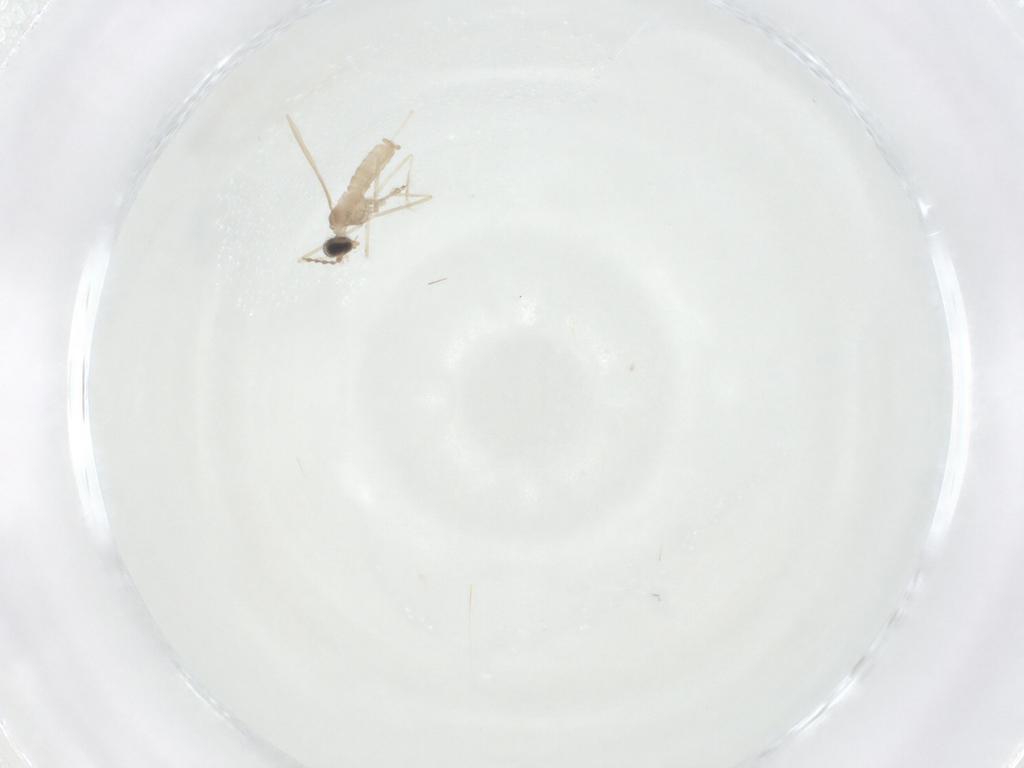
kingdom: Animalia
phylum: Arthropoda
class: Insecta
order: Diptera
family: Cecidomyiidae
